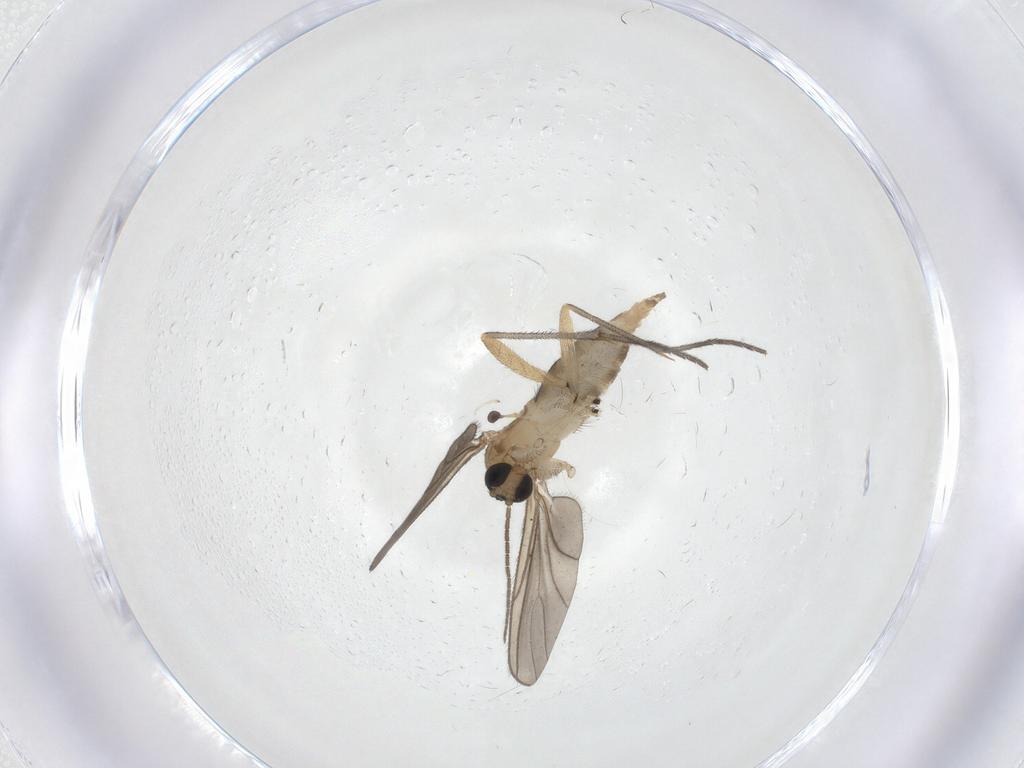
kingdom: Animalia
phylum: Arthropoda
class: Insecta
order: Diptera
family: Sciaridae
